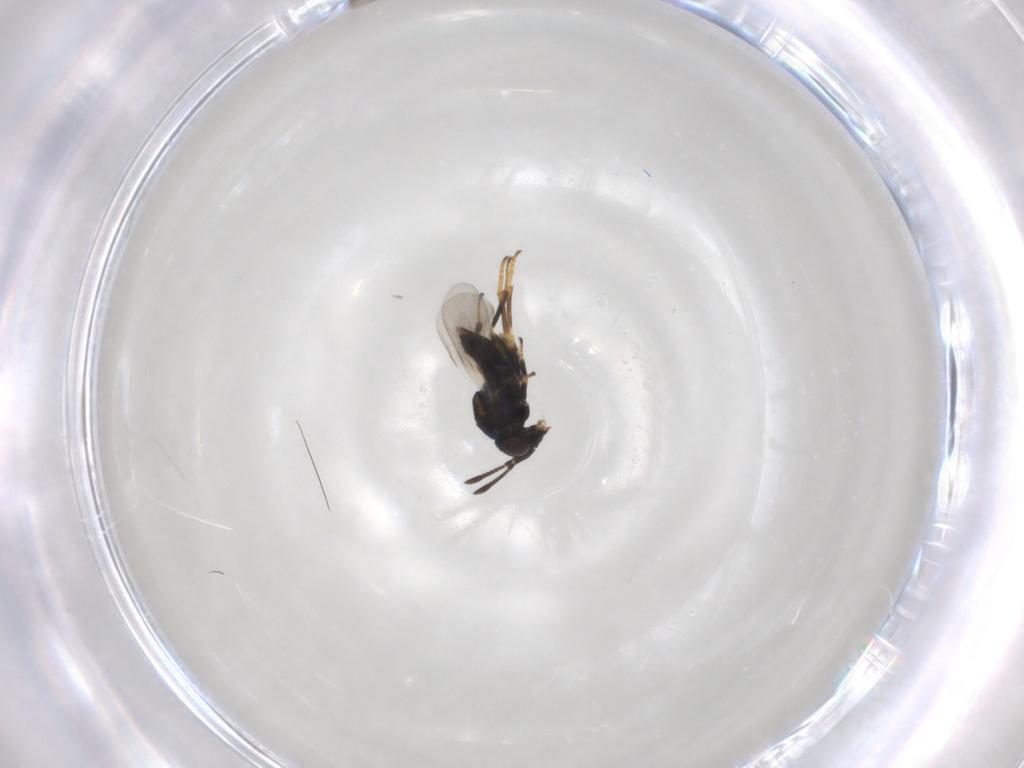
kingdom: Animalia
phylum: Arthropoda
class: Insecta
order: Hymenoptera
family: Encyrtidae
